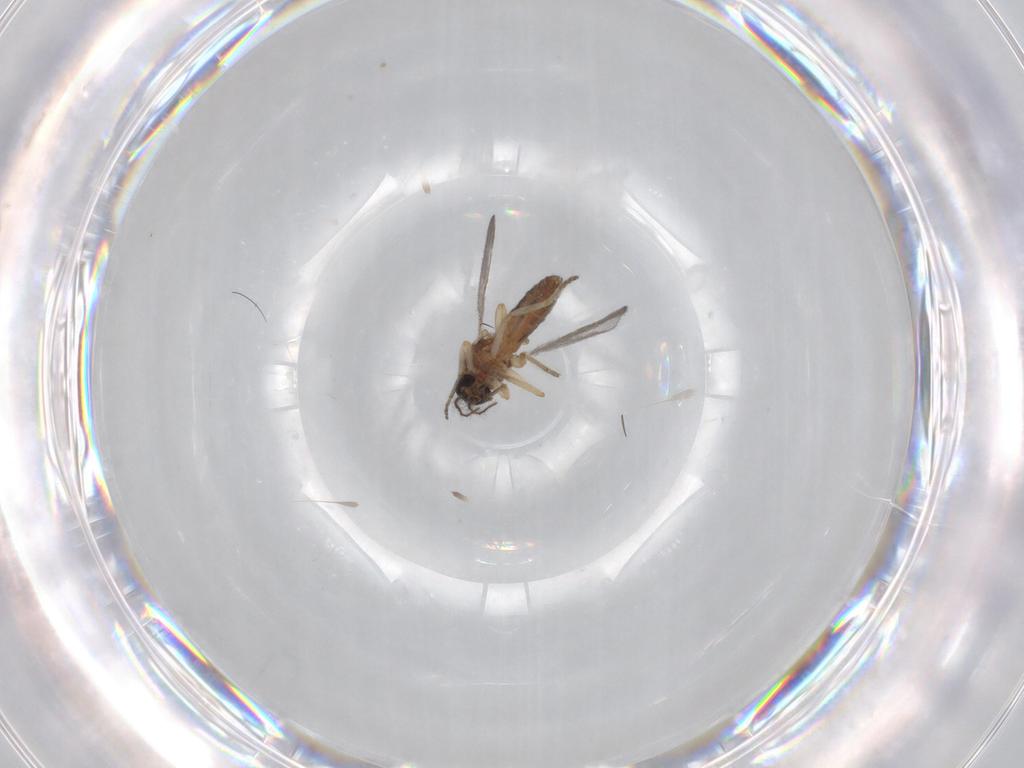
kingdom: Animalia
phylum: Arthropoda
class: Insecta
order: Diptera
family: Ceratopogonidae
